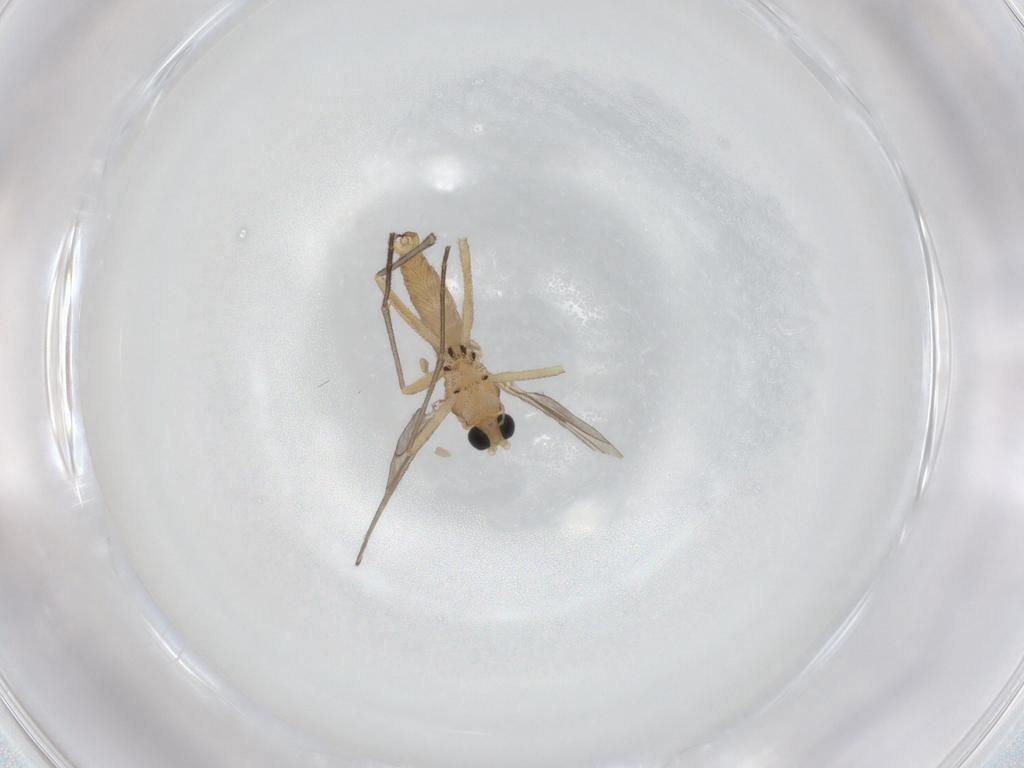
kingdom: Animalia
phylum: Arthropoda
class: Insecta
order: Diptera
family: Sciaridae
